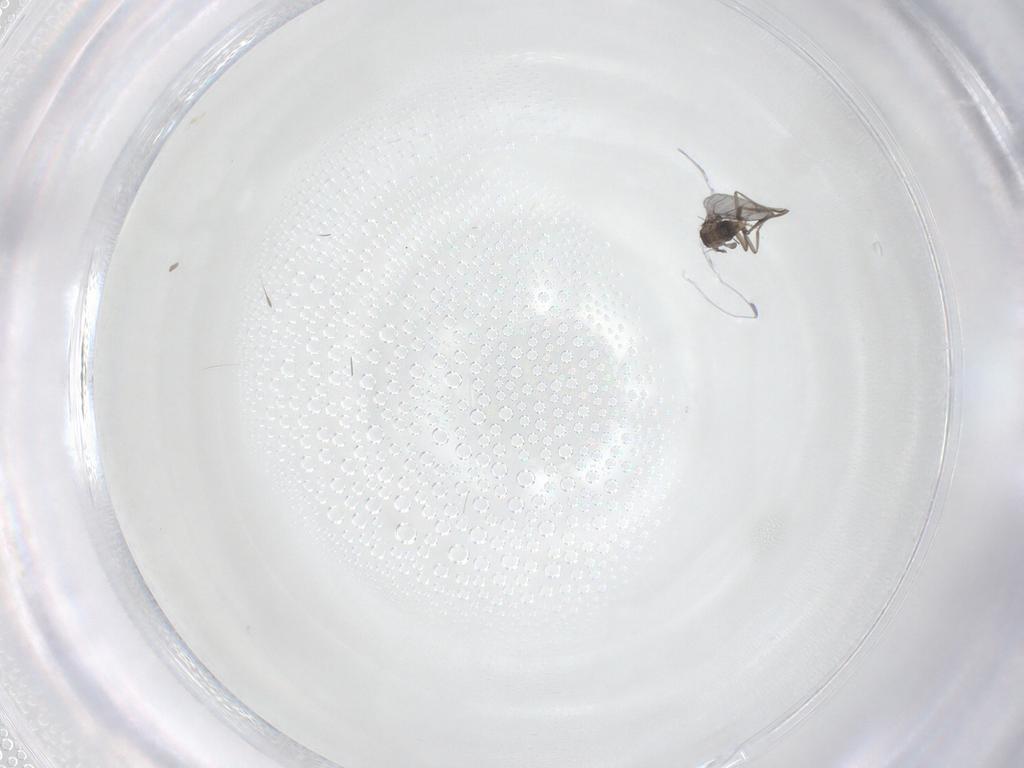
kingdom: Animalia
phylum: Arthropoda
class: Insecta
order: Diptera
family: Phoridae
